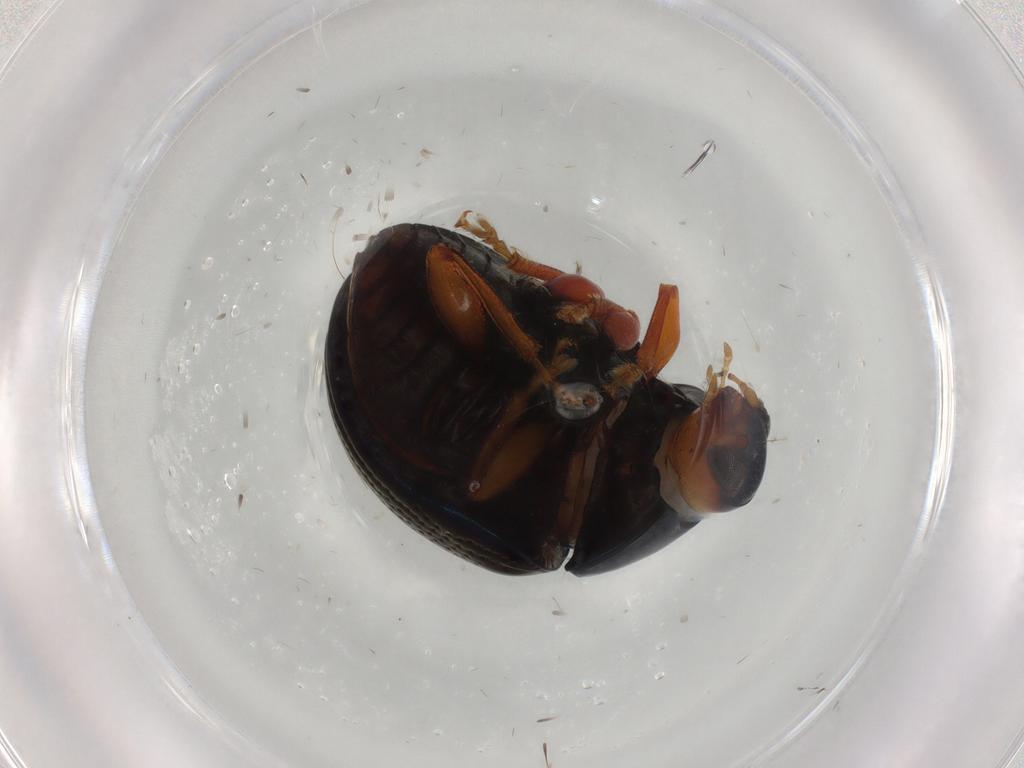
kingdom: Animalia
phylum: Arthropoda
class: Insecta
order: Coleoptera
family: Chrysomelidae
